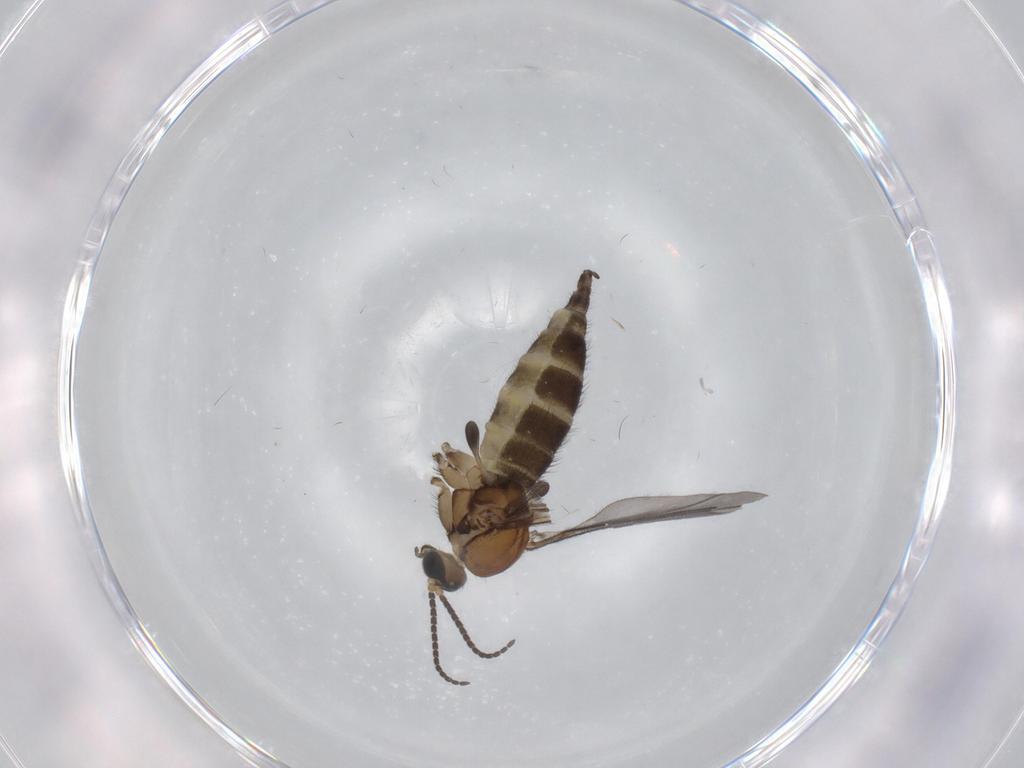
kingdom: Animalia
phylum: Arthropoda
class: Insecta
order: Diptera
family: Sciaridae
